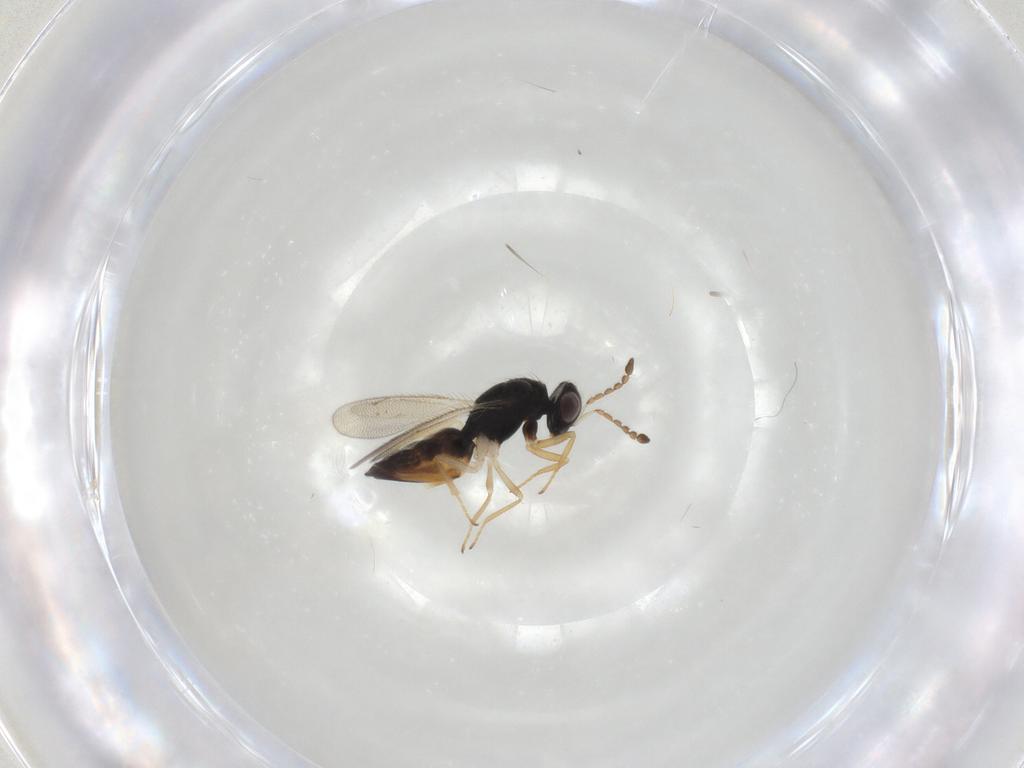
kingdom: Animalia
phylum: Arthropoda
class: Insecta
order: Hymenoptera
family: Eulophidae
